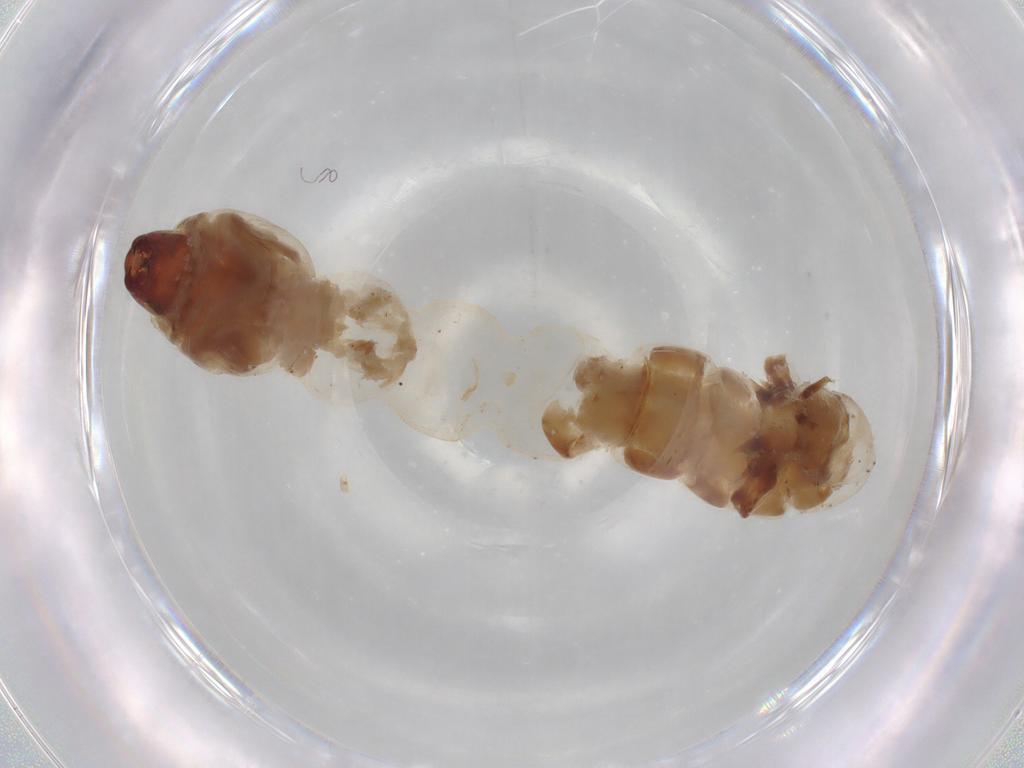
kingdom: Animalia
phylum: Arthropoda
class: Insecta
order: Diptera
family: Chironomidae
